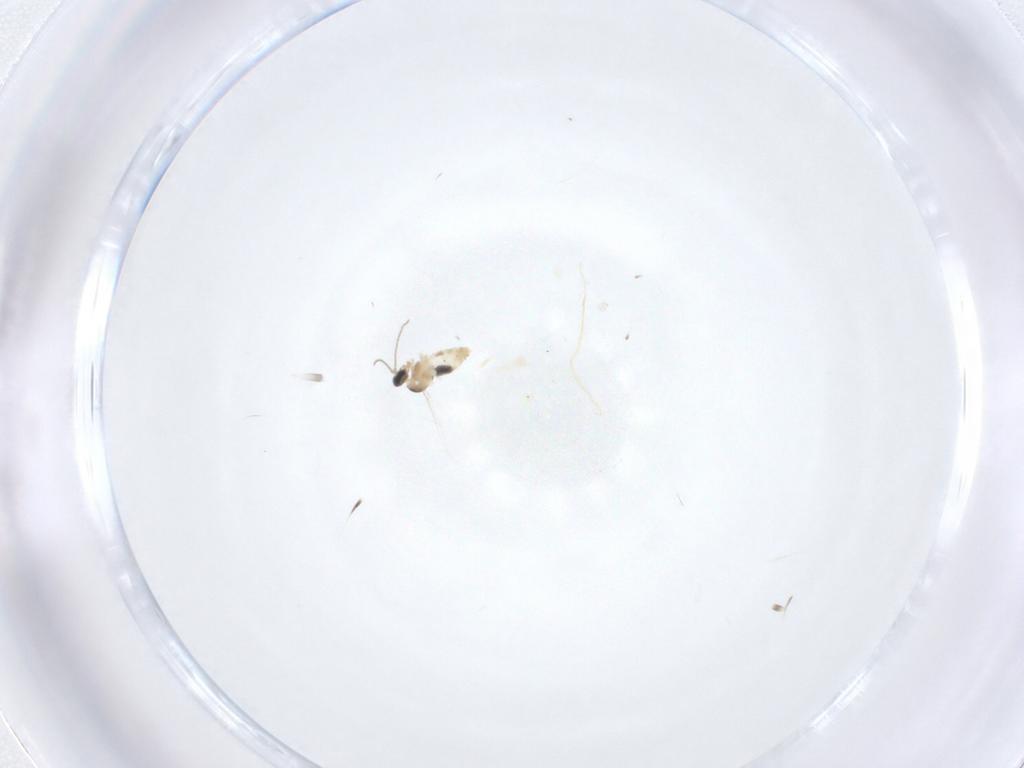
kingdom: Animalia
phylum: Arthropoda
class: Insecta
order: Diptera
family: Cecidomyiidae
